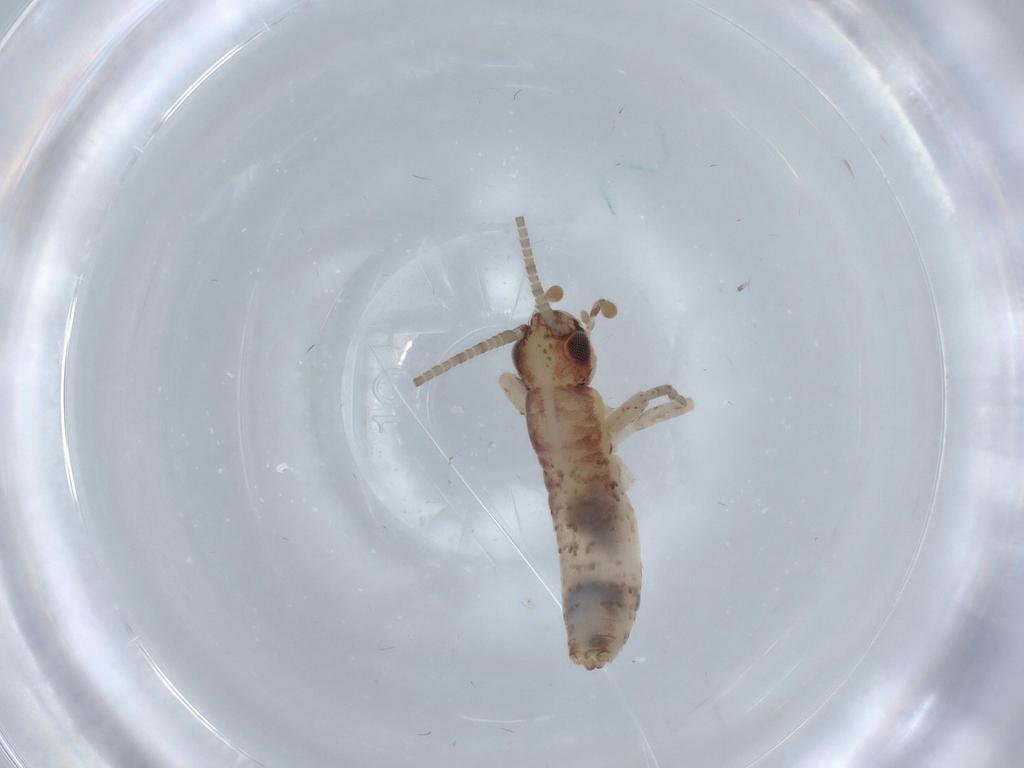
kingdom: Animalia
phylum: Arthropoda
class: Insecta
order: Orthoptera
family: Mogoplistidae
